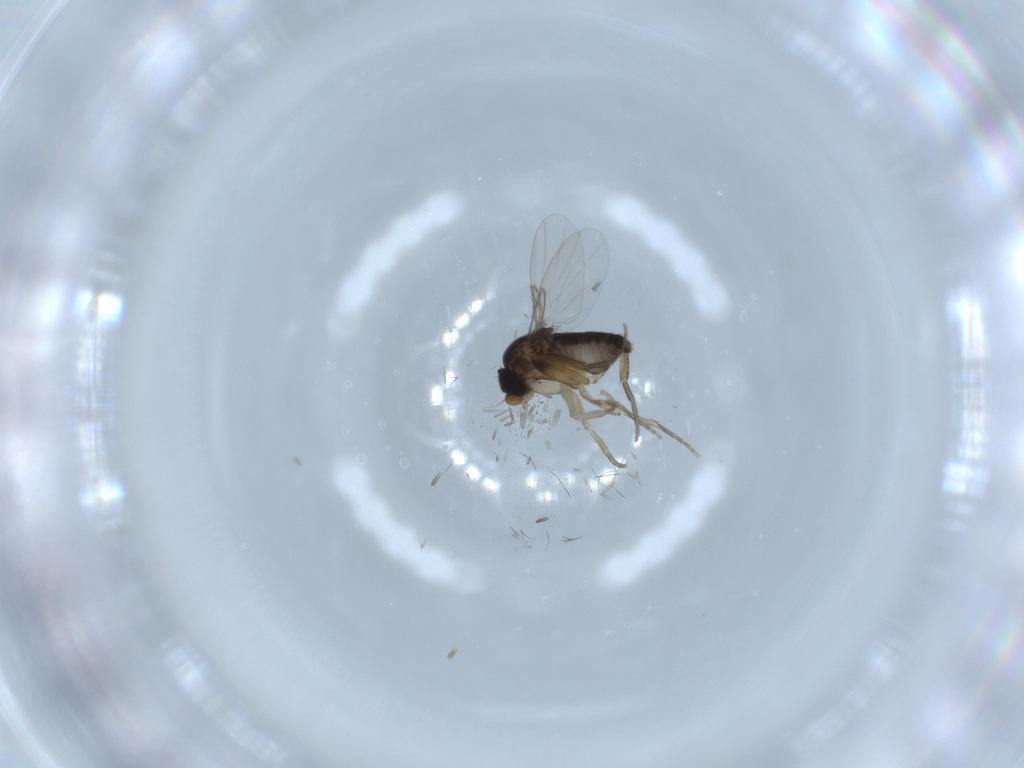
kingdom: Animalia
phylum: Arthropoda
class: Insecta
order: Diptera
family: Phoridae
